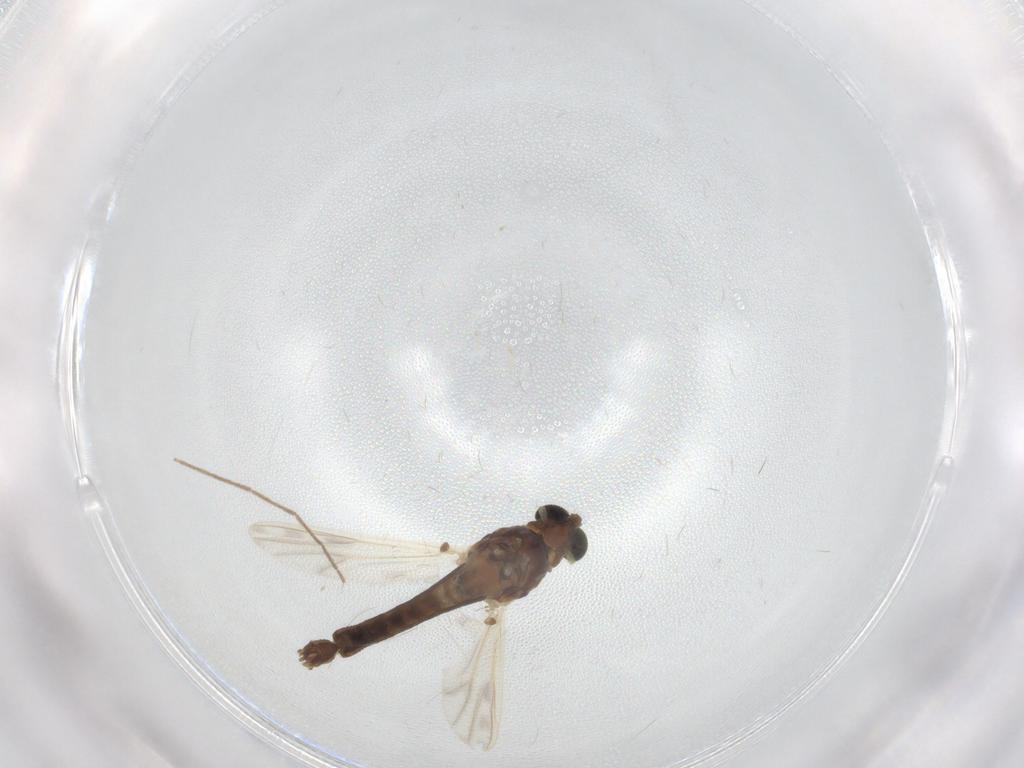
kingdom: Animalia
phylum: Arthropoda
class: Insecta
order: Diptera
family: Chironomidae
